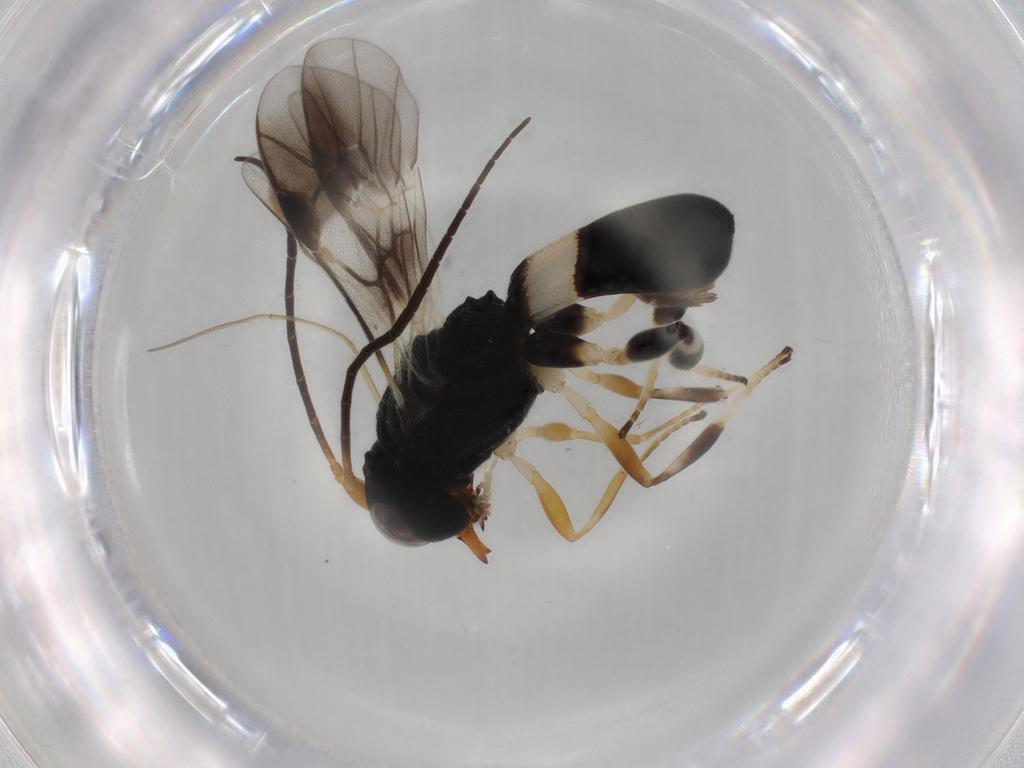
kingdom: Animalia
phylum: Arthropoda
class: Insecta
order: Hymenoptera
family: Braconidae
